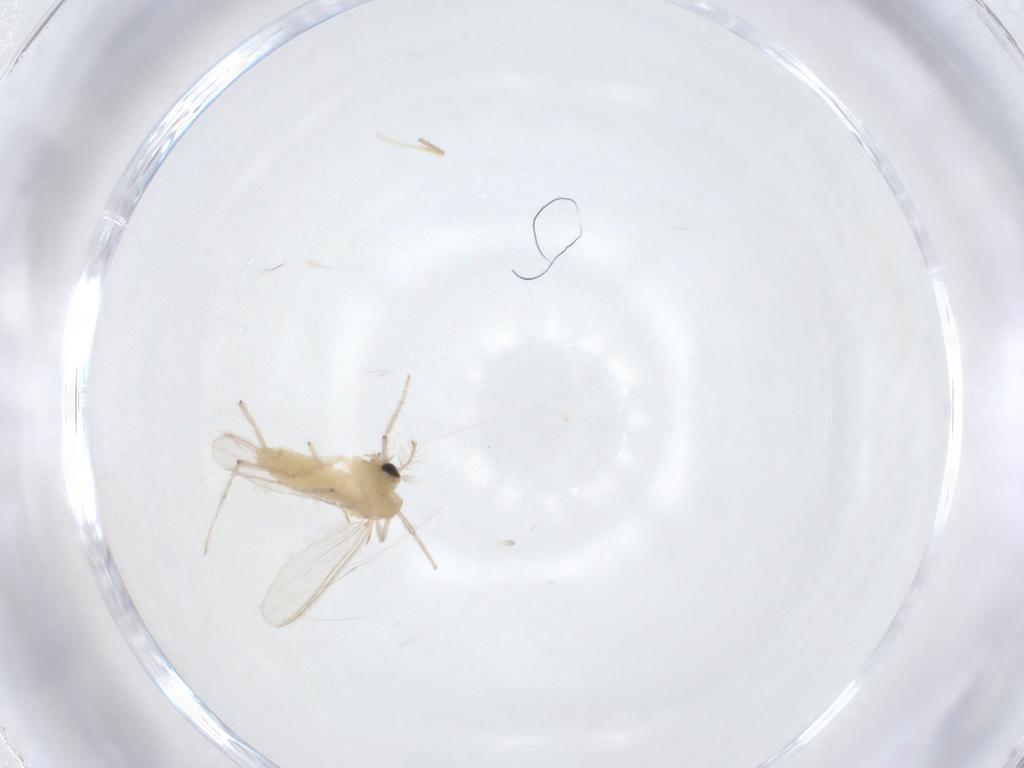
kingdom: Animalia
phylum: Arthropoda
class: Insecta
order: Diptera
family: Chironomidae
